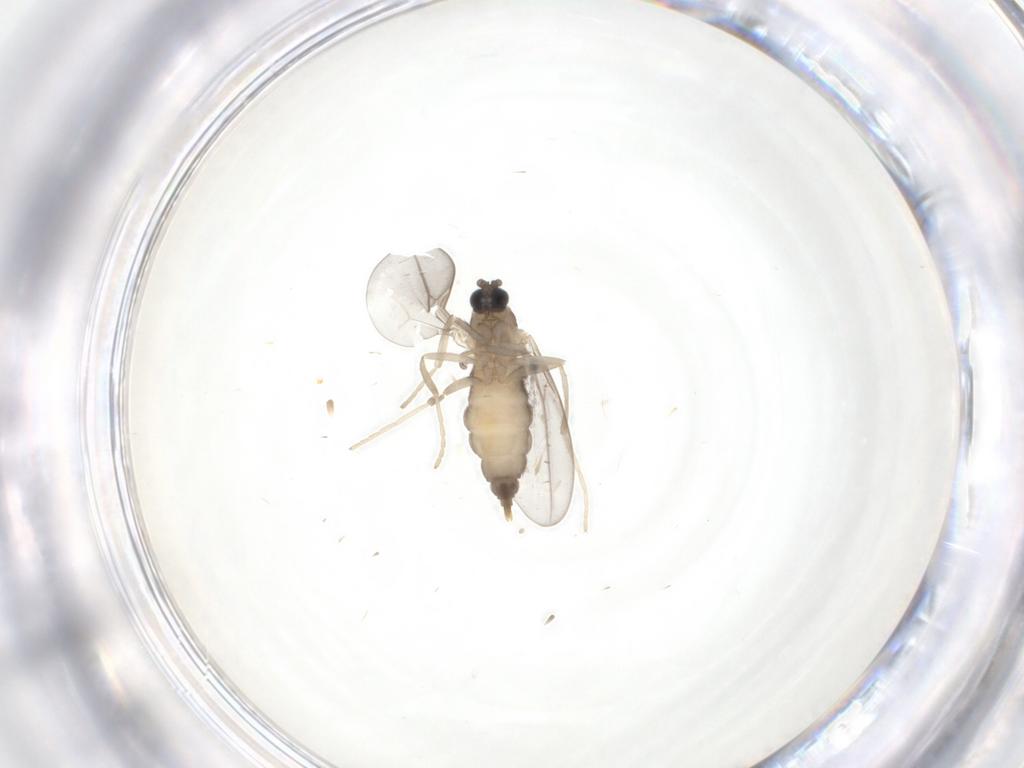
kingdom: Animalia
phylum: Arthropoda
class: Insecta
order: Diptera
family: Cecidomyiidae
